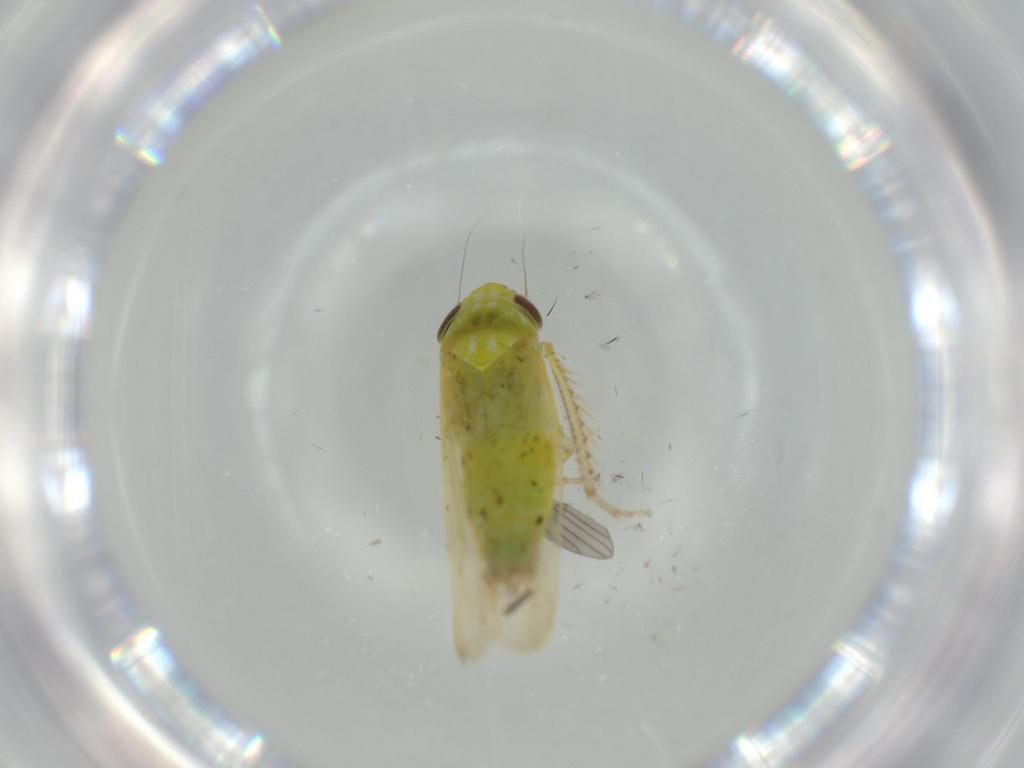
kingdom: Animalia
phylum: Arthropoda
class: Insecta
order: Hemiptera
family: Cicadellidae
